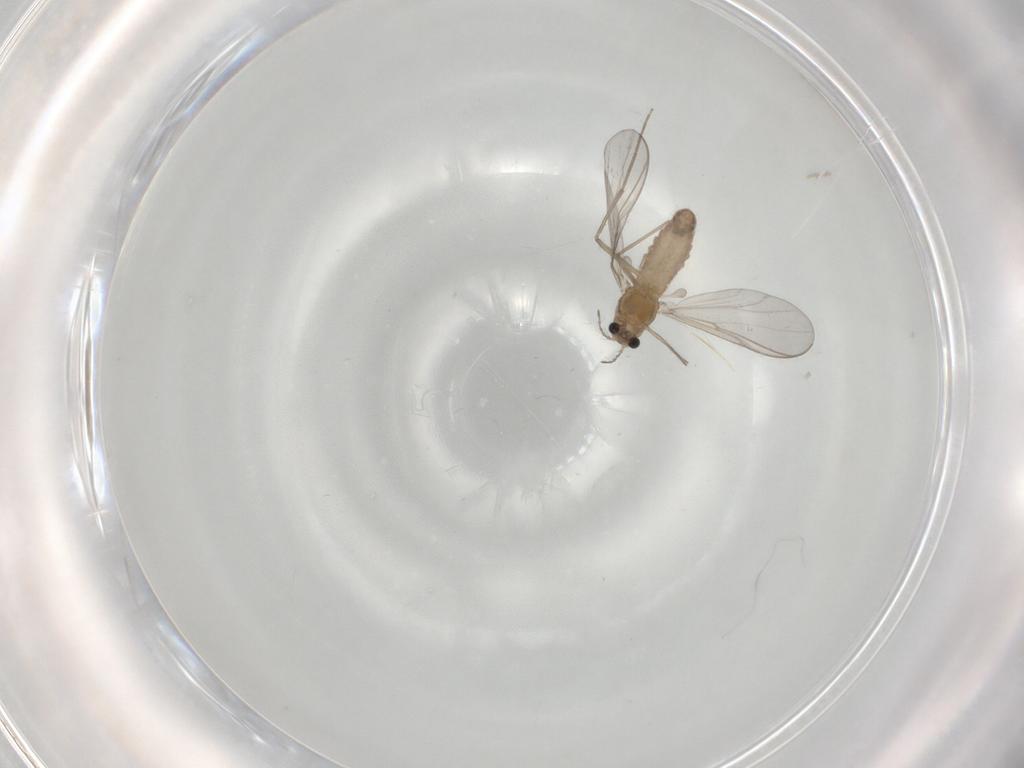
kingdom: Animalia
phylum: Arthropoda
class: Insecta
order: Diptera
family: Chironomidae
